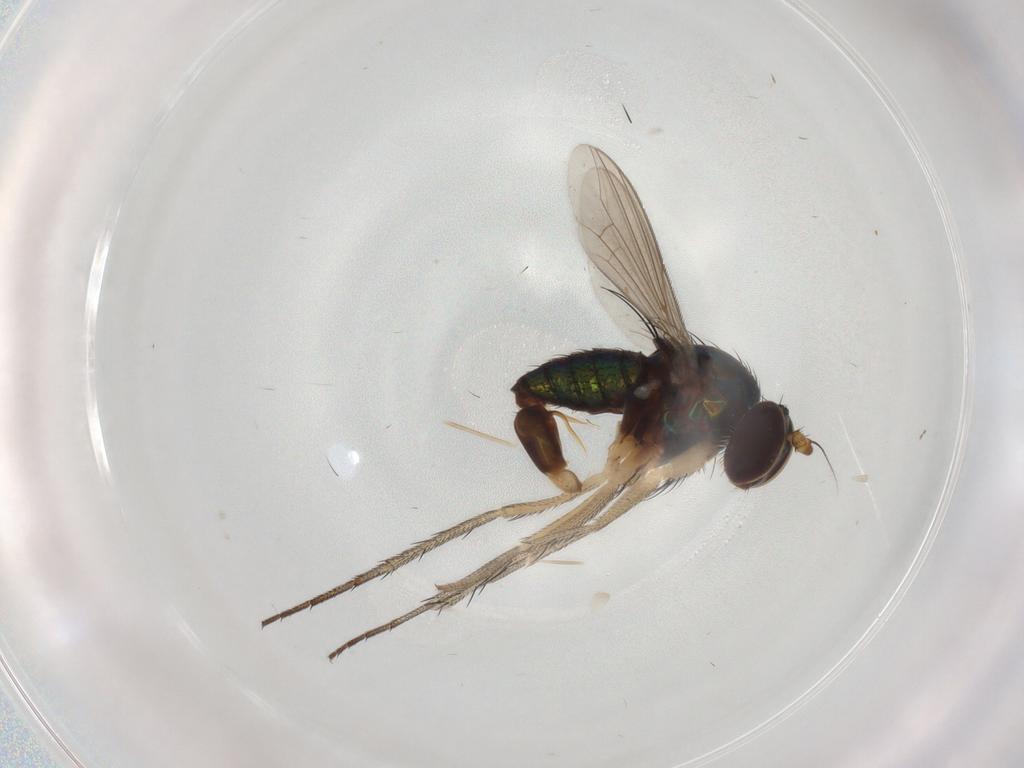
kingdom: Animalia
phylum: Arthropoda
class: Insecta
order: Diptera
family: Dolichopodidae
